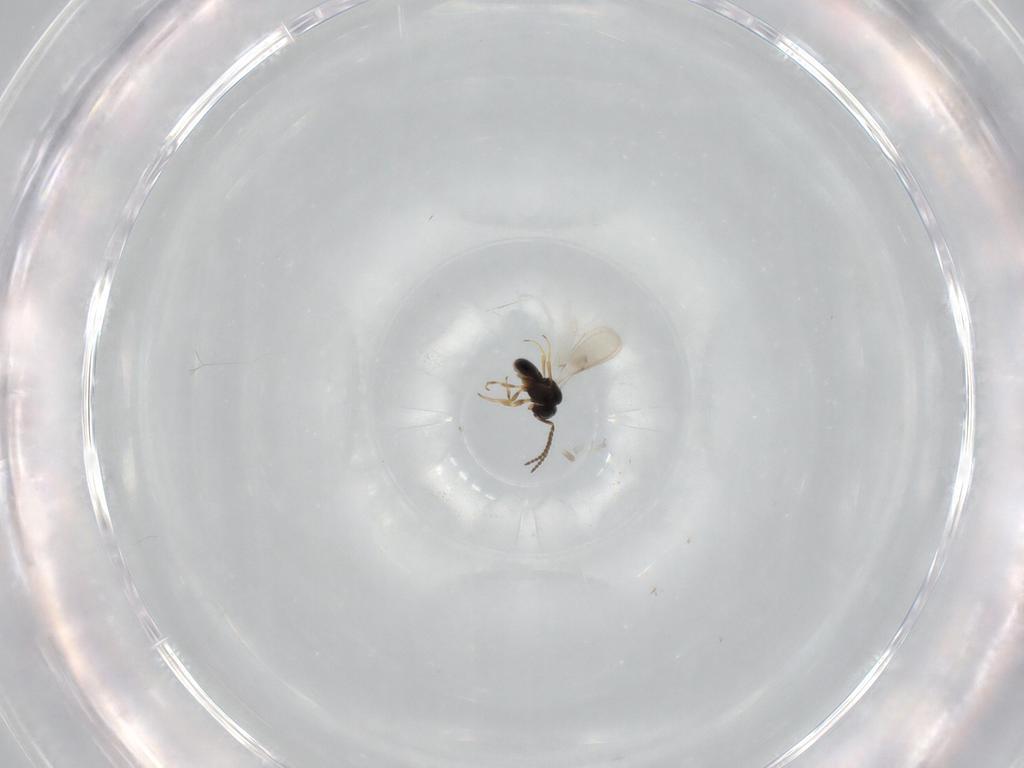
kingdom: Animalia
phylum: Arthropoda
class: Insecta
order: Hymenoptera
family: Scelionidae
